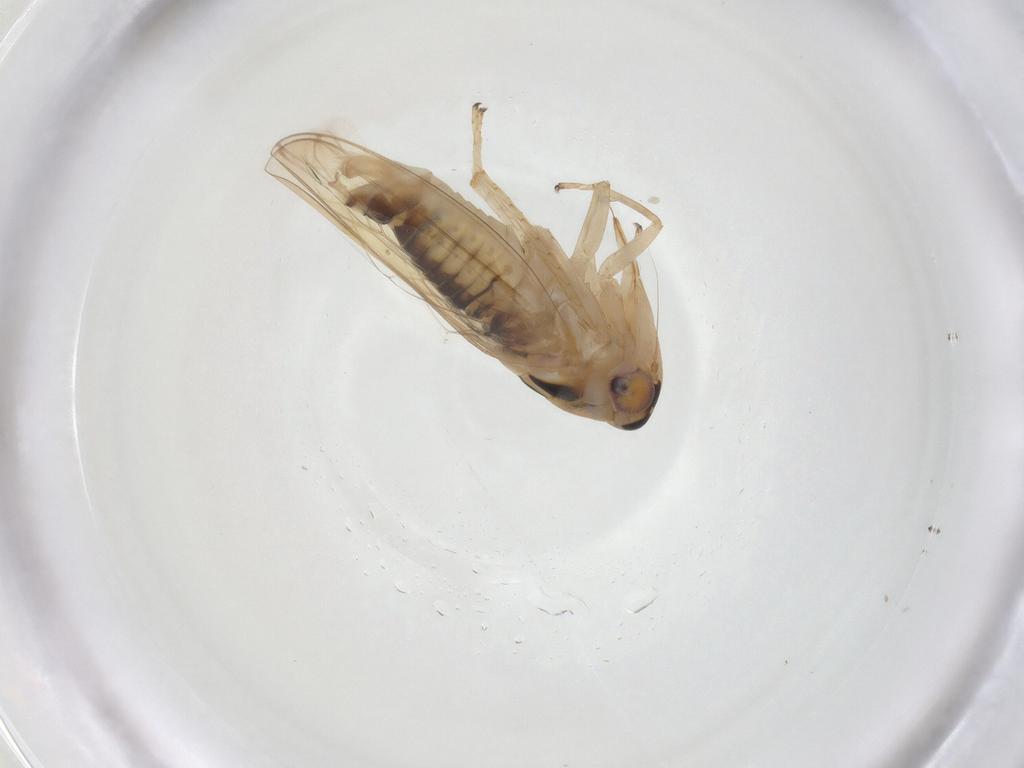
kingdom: Animalia
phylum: Arthropoda
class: Insecta
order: Hemiptera
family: Cicadellidae
